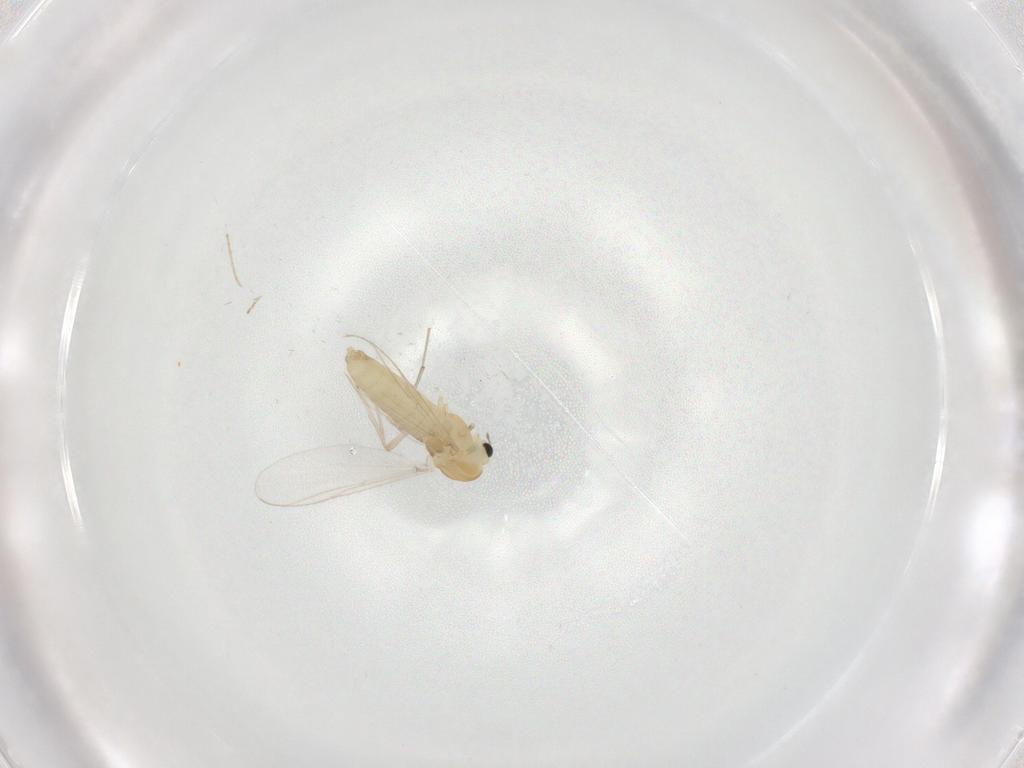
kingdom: Animalia
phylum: Arthropoda
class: Insecta
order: Diptera
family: Chironomidae
